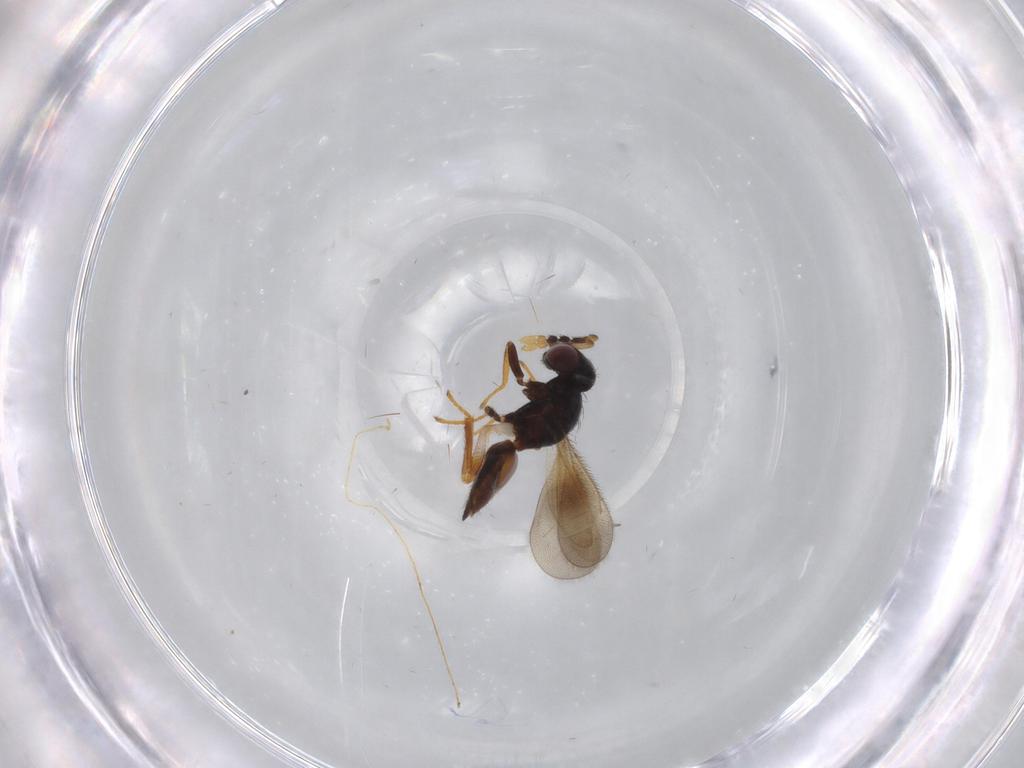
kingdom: Animalia
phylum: Arthropoda
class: Insecta
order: Hymenoptera
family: Eulophidae
